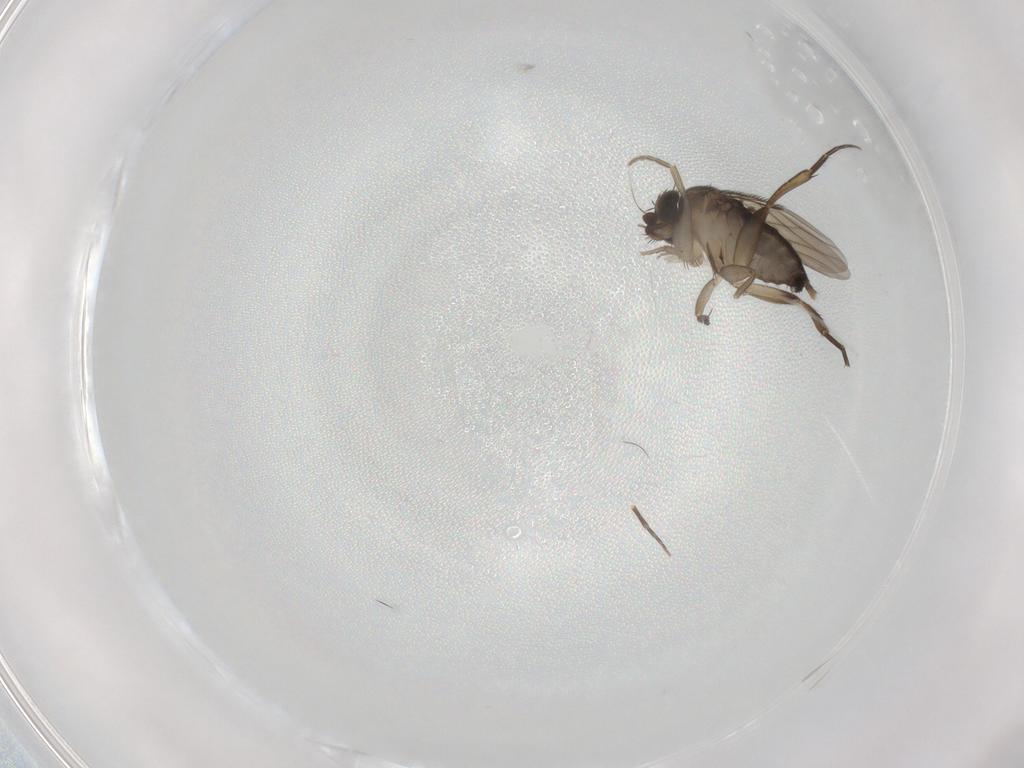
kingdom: Animalia
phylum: Arthropoda
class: Insecta
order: Diptera
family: Phoridae
